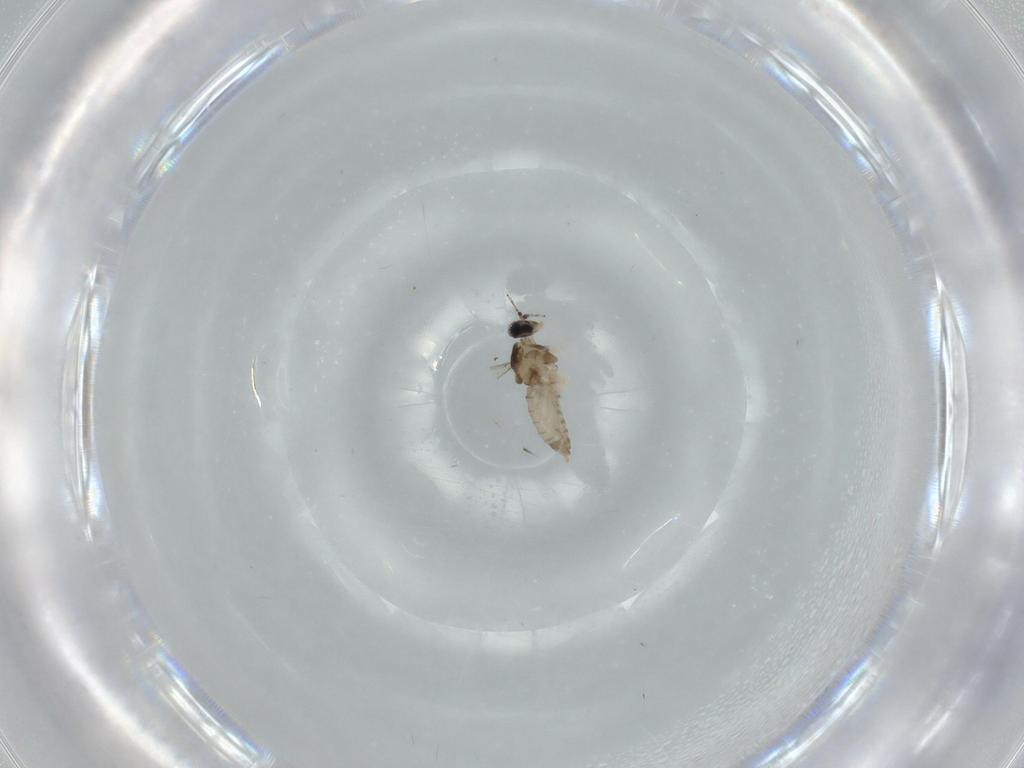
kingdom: Animalia
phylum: Arthropoda
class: Insecta
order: Diptera
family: Cecidomyiidae
